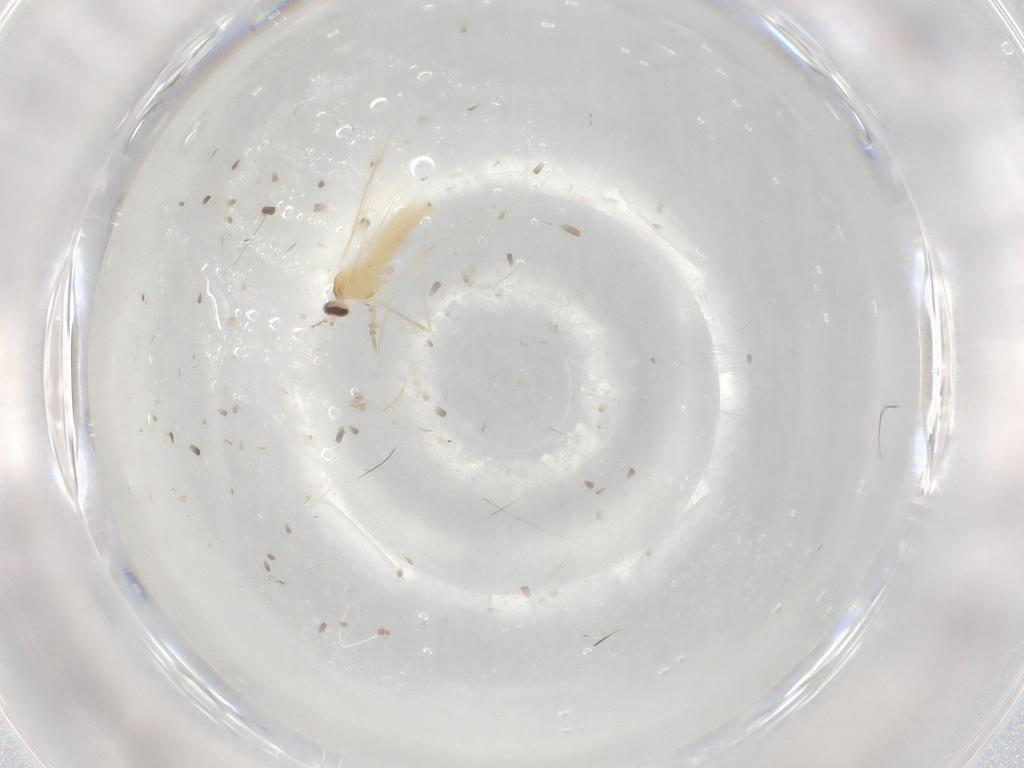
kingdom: Animalia
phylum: Arthropoda
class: Insecta
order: Diptera
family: Cecidomyiidae
